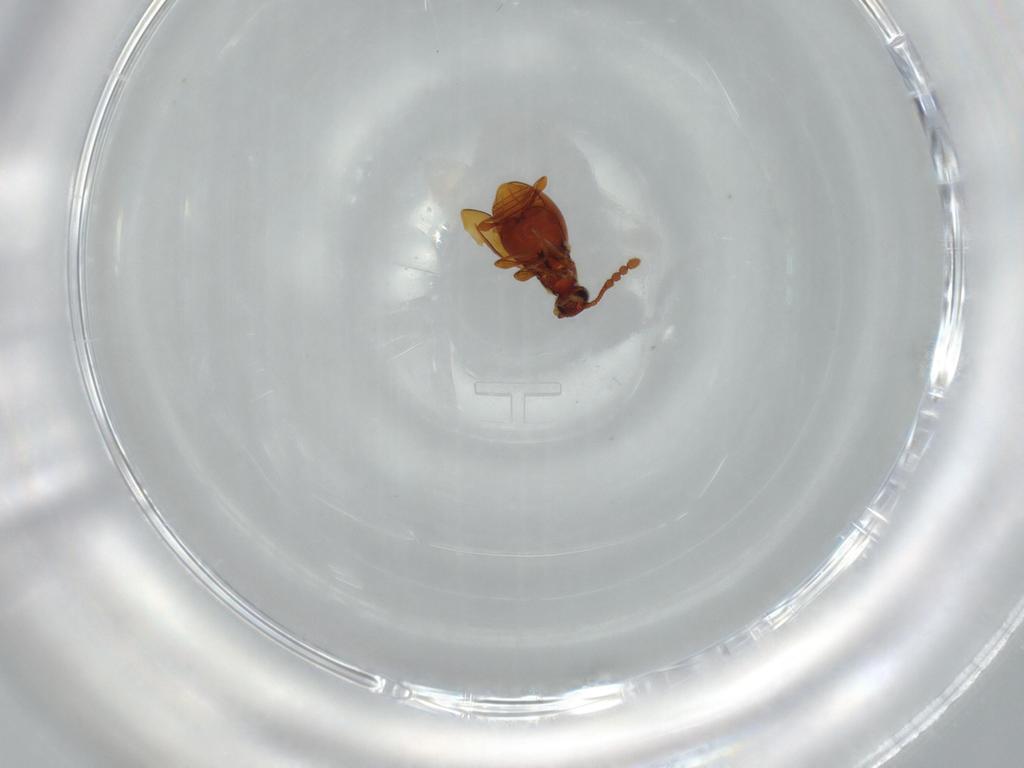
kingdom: Animalia
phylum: Arthropoda
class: Insecta
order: Coleoptera
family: Staphylinidae
